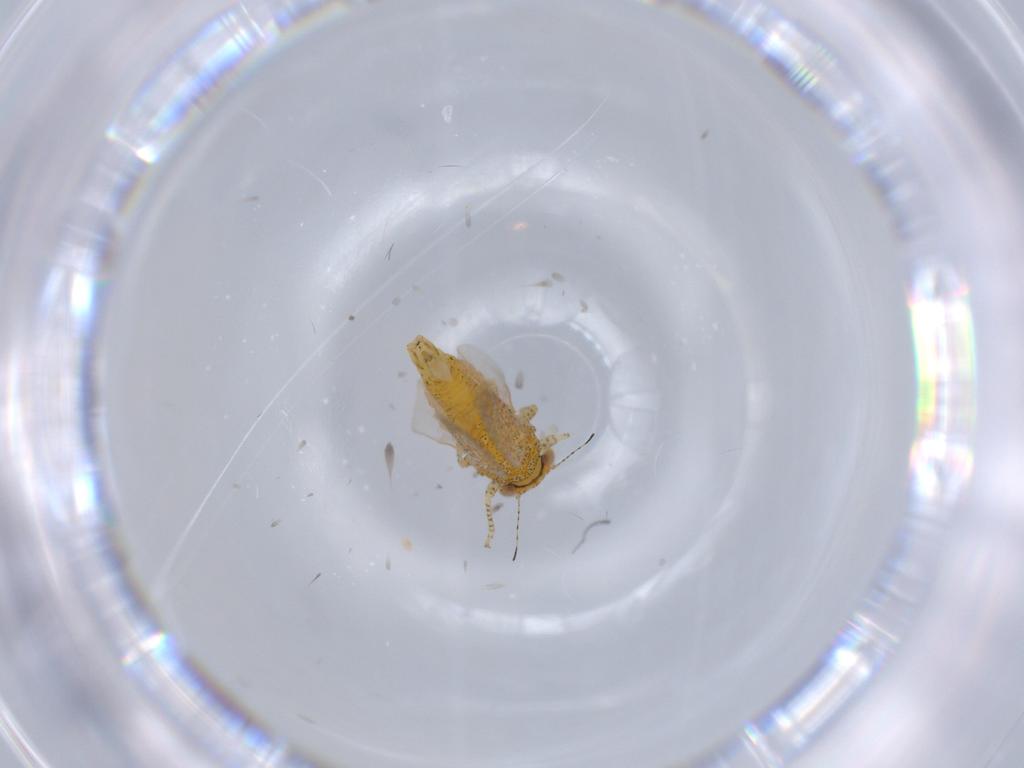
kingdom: Animalia
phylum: Arthropoda
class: Insecta
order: Hemiptera
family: Psyllidae
